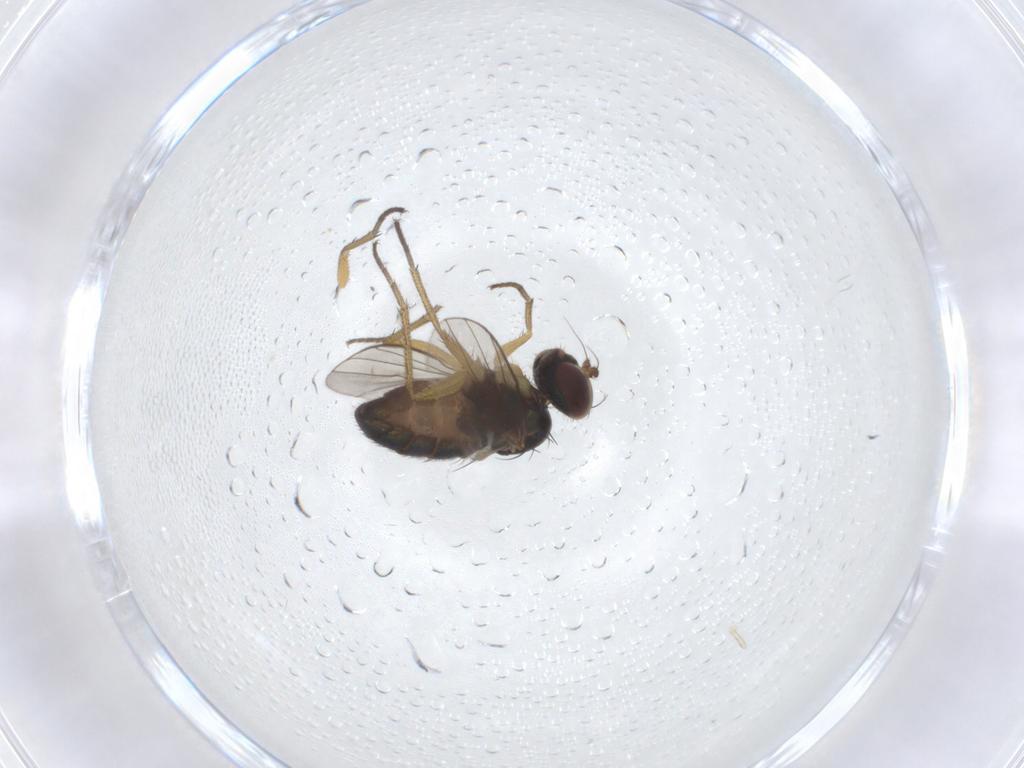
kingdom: Animalia
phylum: Arthropoda
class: Insecta
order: Diptera
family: Dolichopodidae
